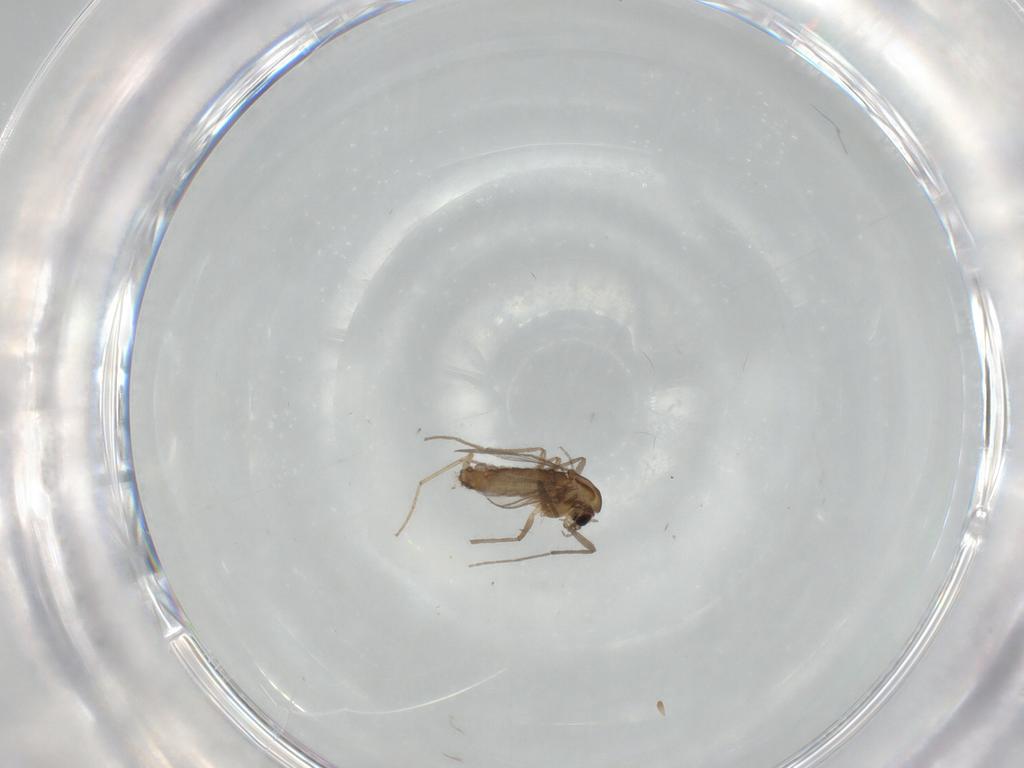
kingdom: Animalia
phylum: Arthropoda
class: Insecta
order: Diptera
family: Chironomidae
